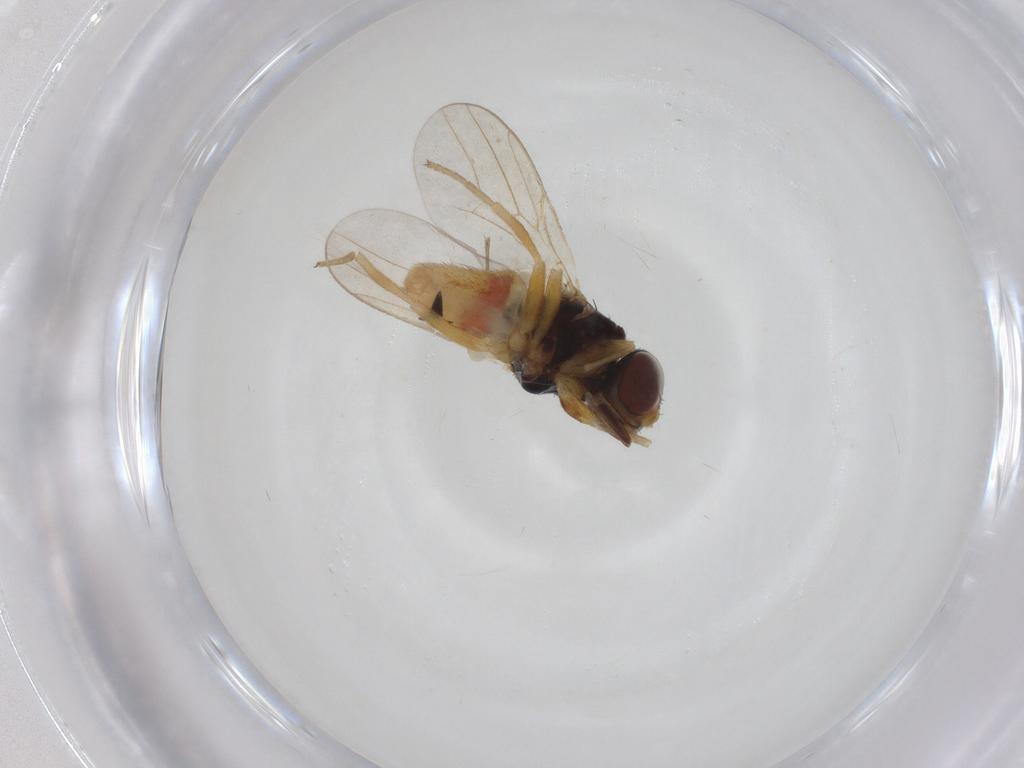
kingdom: Animalia
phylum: Arthropoda
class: Insecta
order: Diptera
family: Chloropidae
